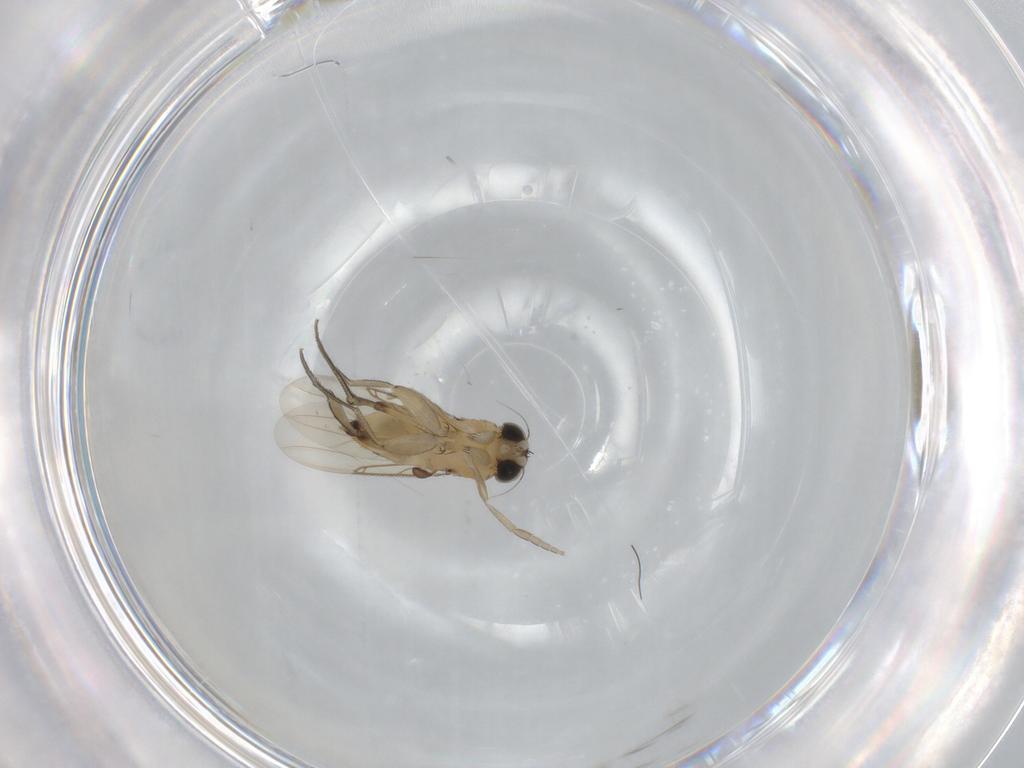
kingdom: Animalia
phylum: Arthropoda
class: Insecta
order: Diptera
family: Phoridae
